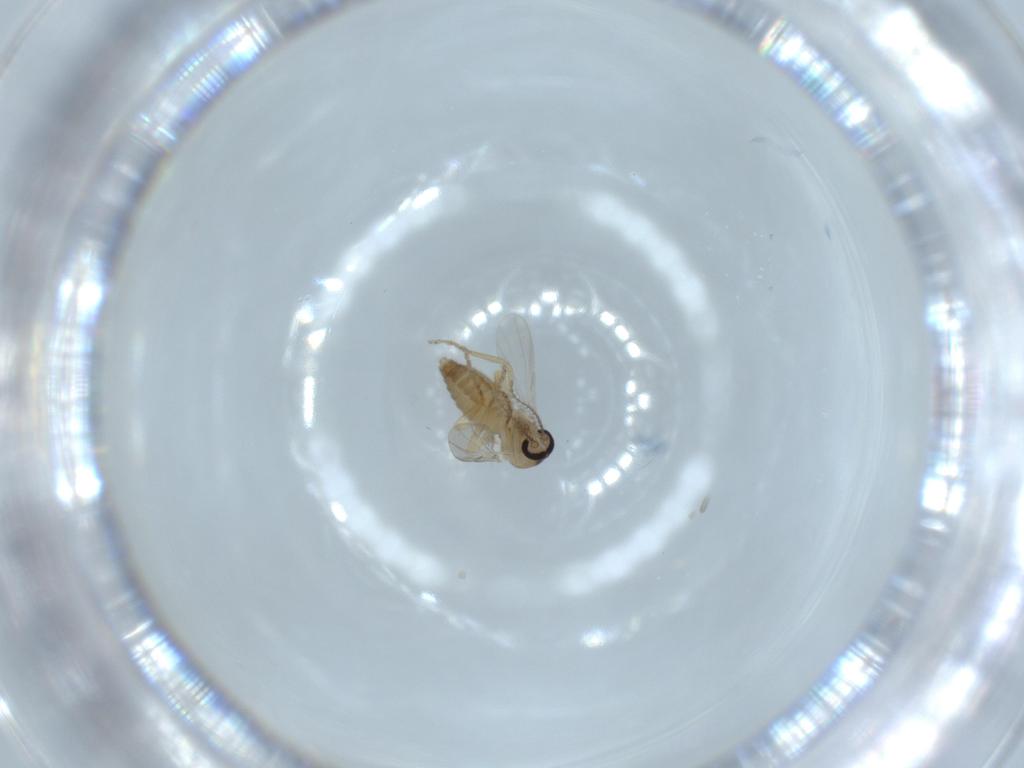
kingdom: Animalia
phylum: Arthropoda
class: Insecta
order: Diptera
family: Ceratopogonidae
